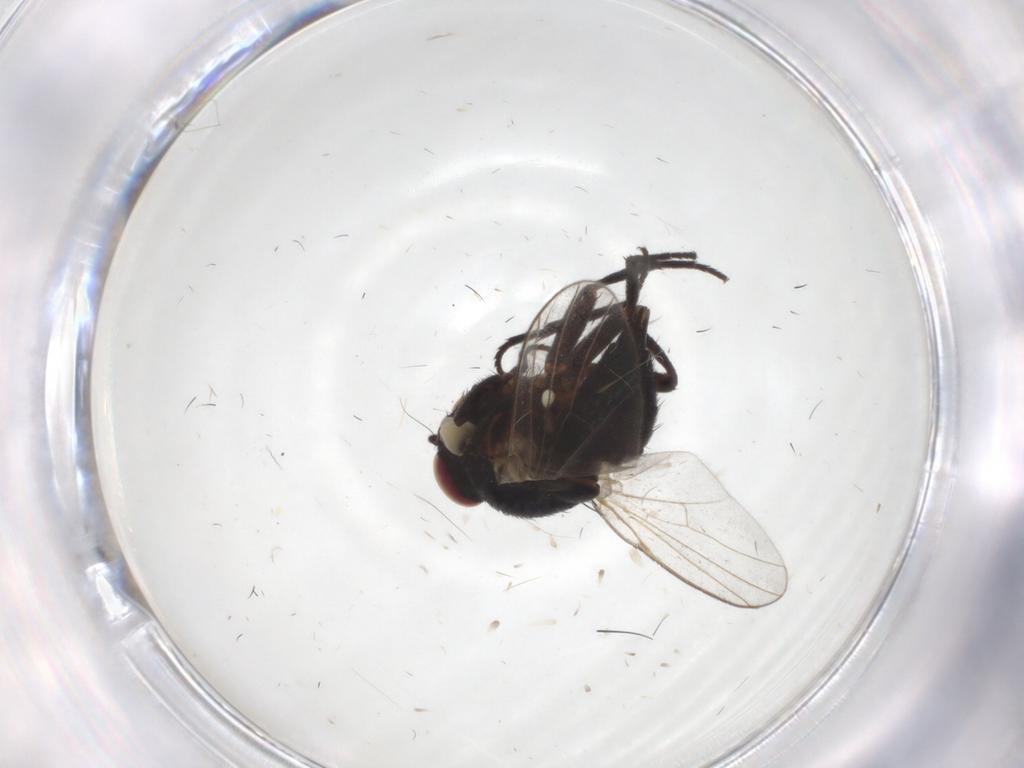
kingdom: Animalia
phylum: Arthropoda
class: Insecta
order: Diptera
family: Agromyzidae
